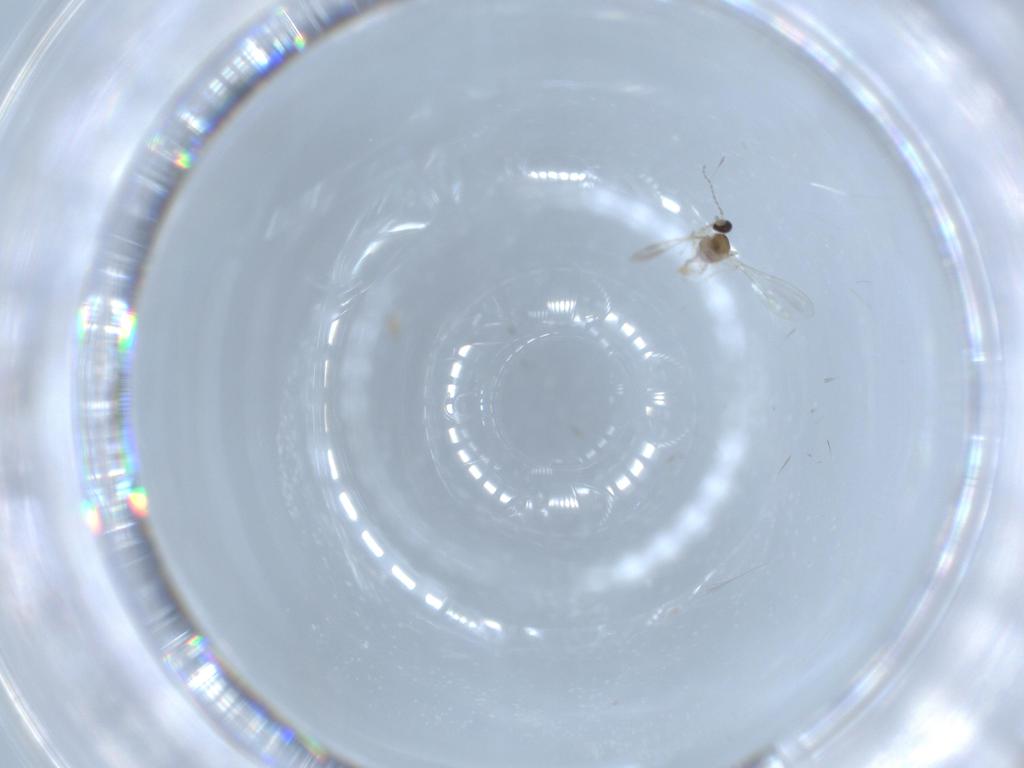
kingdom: Animalia
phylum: Arthropoda
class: Insecta
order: Diptera
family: Cecidomyiidae
